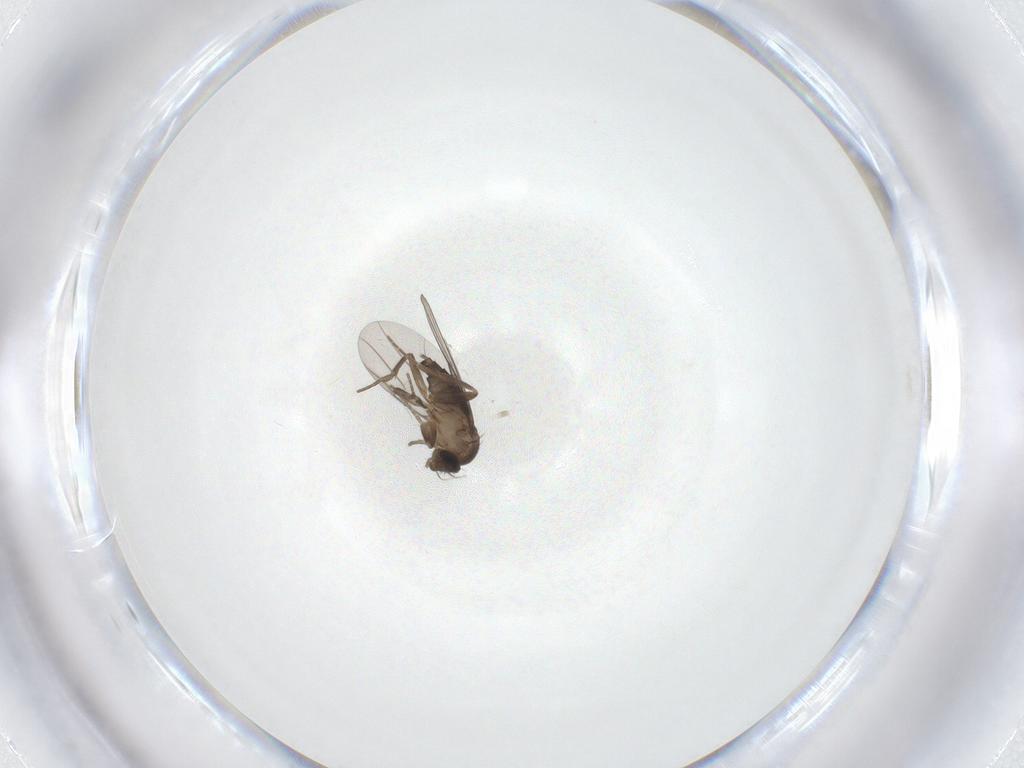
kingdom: Animalia
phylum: Arthropoda
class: Insecta
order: Diptera
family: Phoridae
